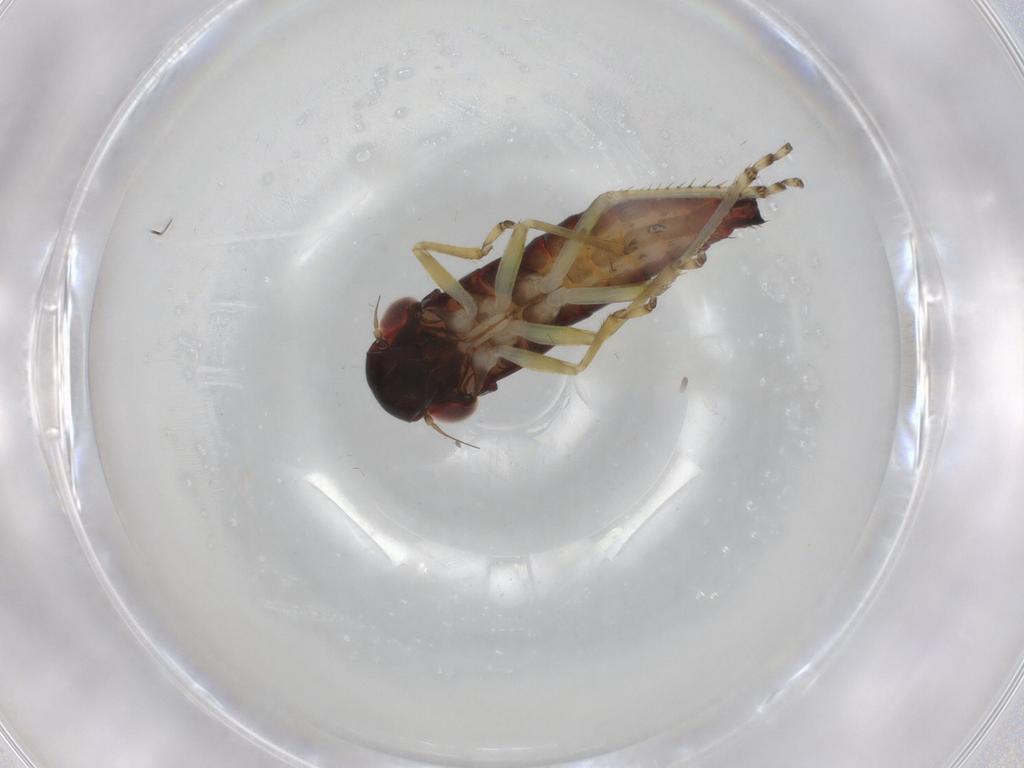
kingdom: Animalia
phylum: Arthropoda
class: Insecta
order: Hemiptera
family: Cicadellidae
